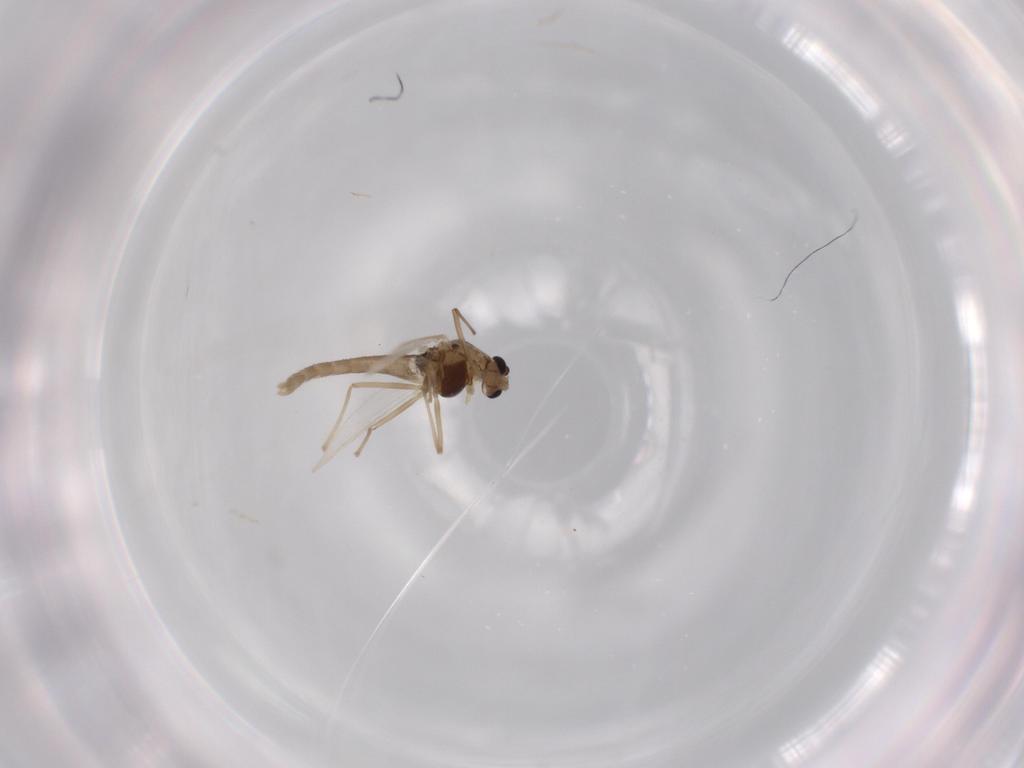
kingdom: Animalia
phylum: Arthropoda
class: Insecta
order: Diptera
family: Chironomidae
